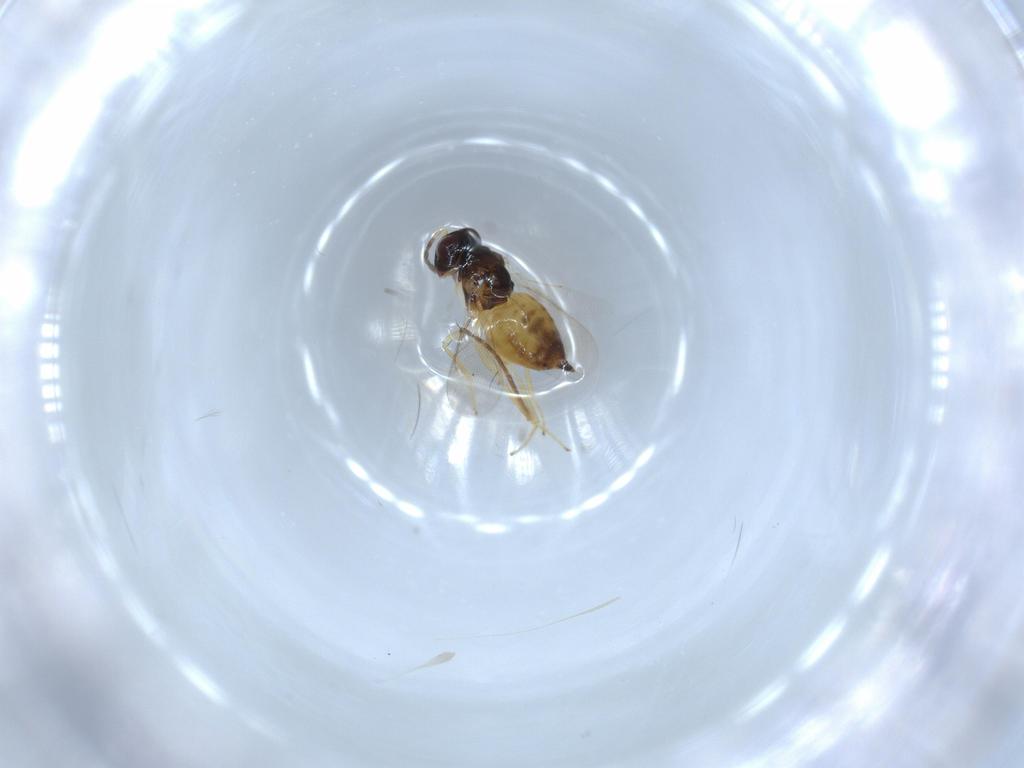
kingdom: Animalia
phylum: Arthropoda
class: Insecta
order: Hymenoptera
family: Eulophidae
